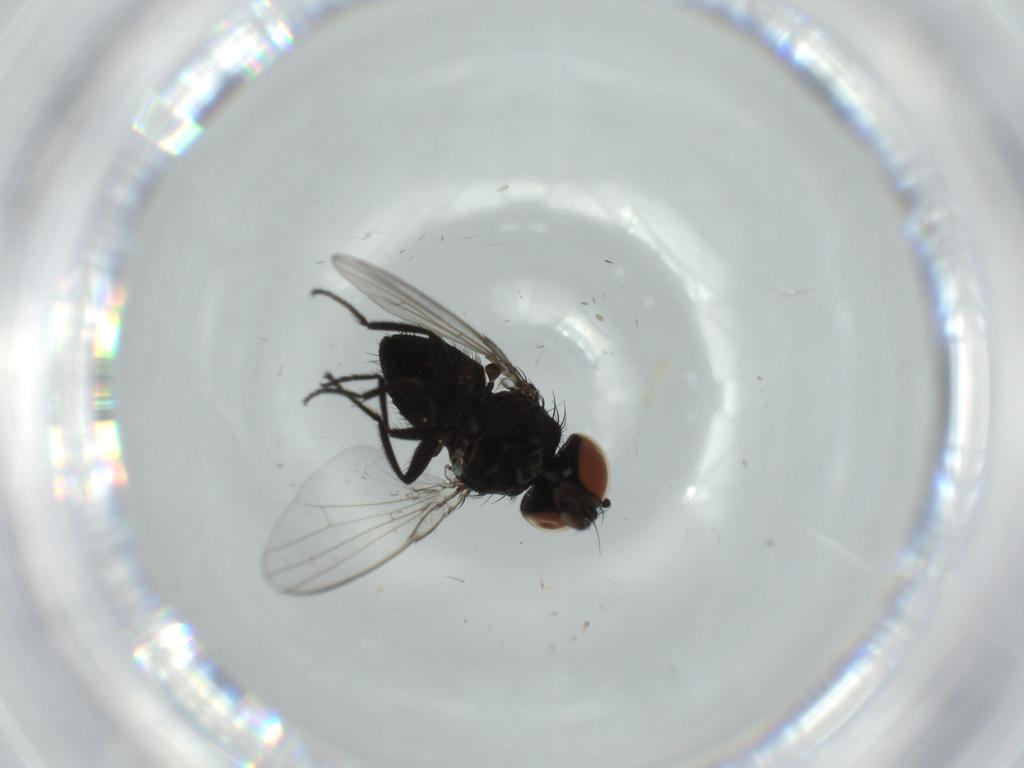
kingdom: Animalia
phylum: Arthropoda
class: Insecta
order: Diptera
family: Milichiidae
